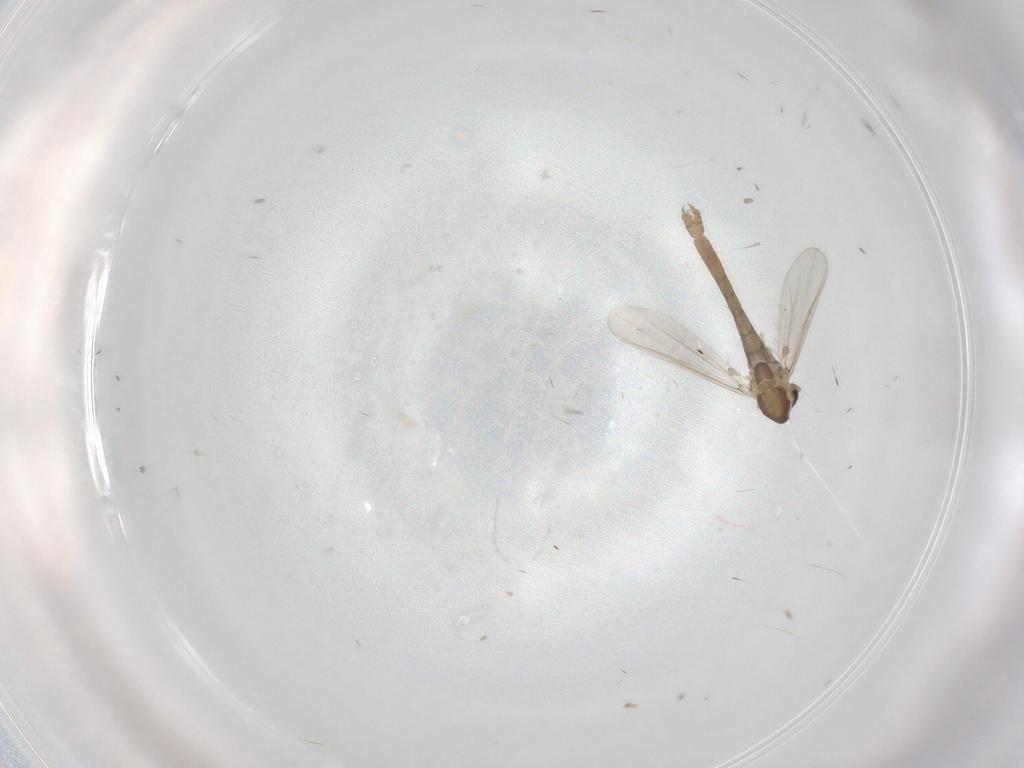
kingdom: Animalia
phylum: Arthropoda
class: Insecta
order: Diptera
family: Chironomidae
